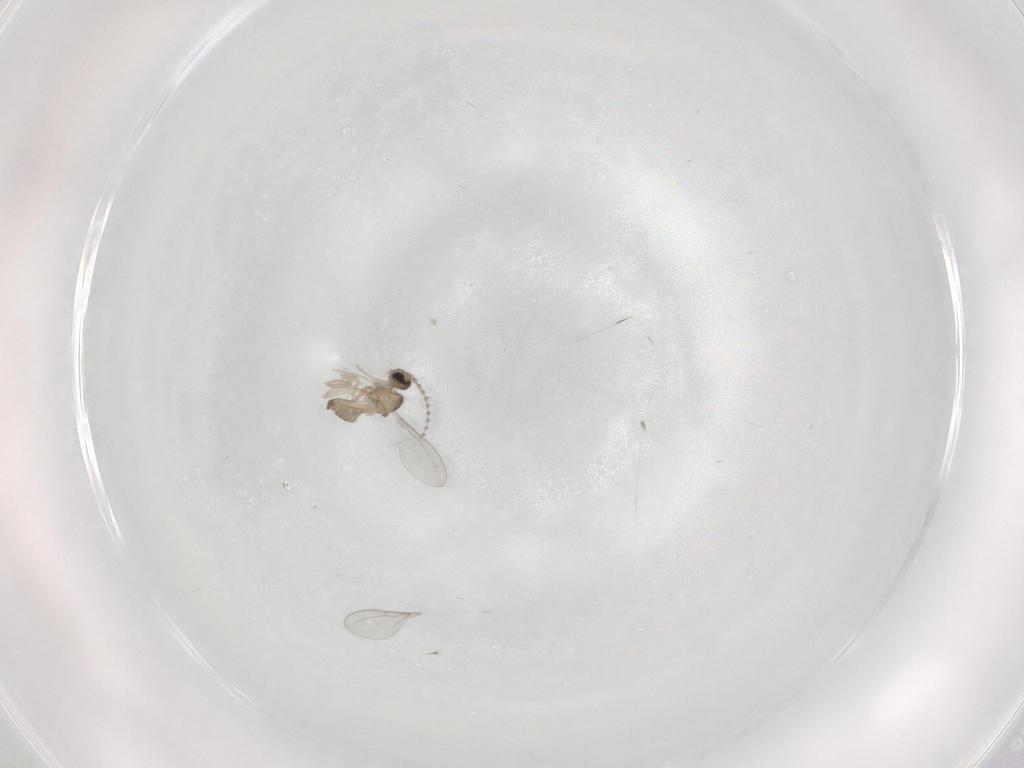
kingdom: Animalia
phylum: Arthropoda
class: Insecta
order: Diptera
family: Cecidomyiidae
